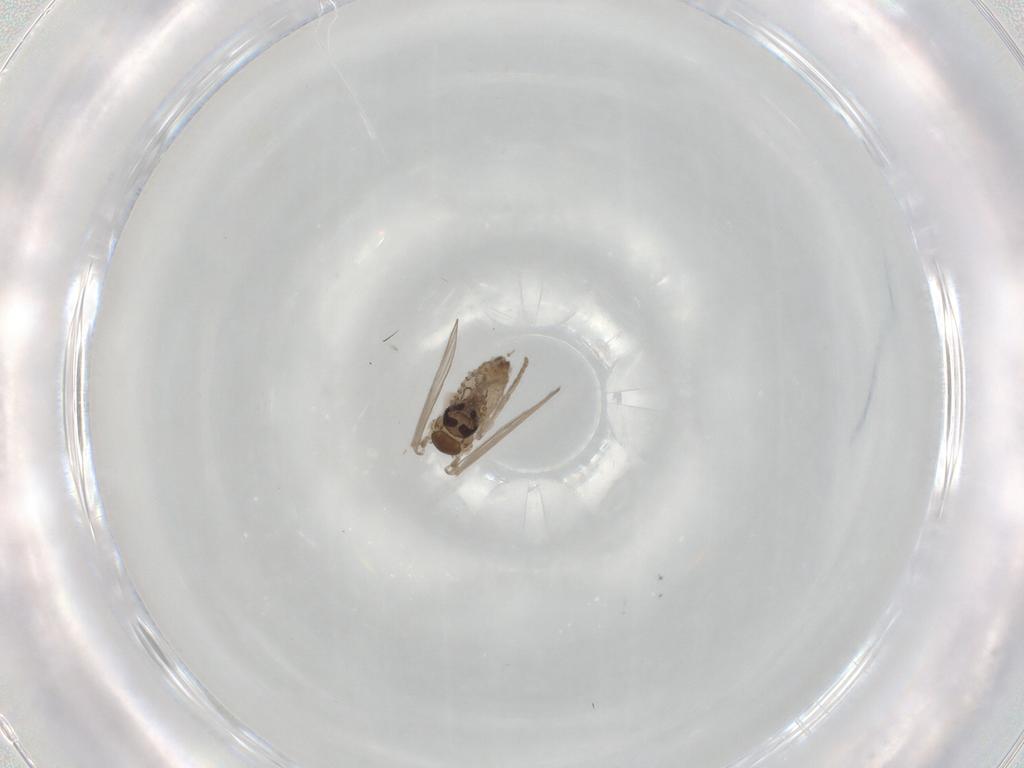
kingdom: Animalia
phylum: Arthropoda
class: Insecta
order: Diptera
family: Psychodidae
